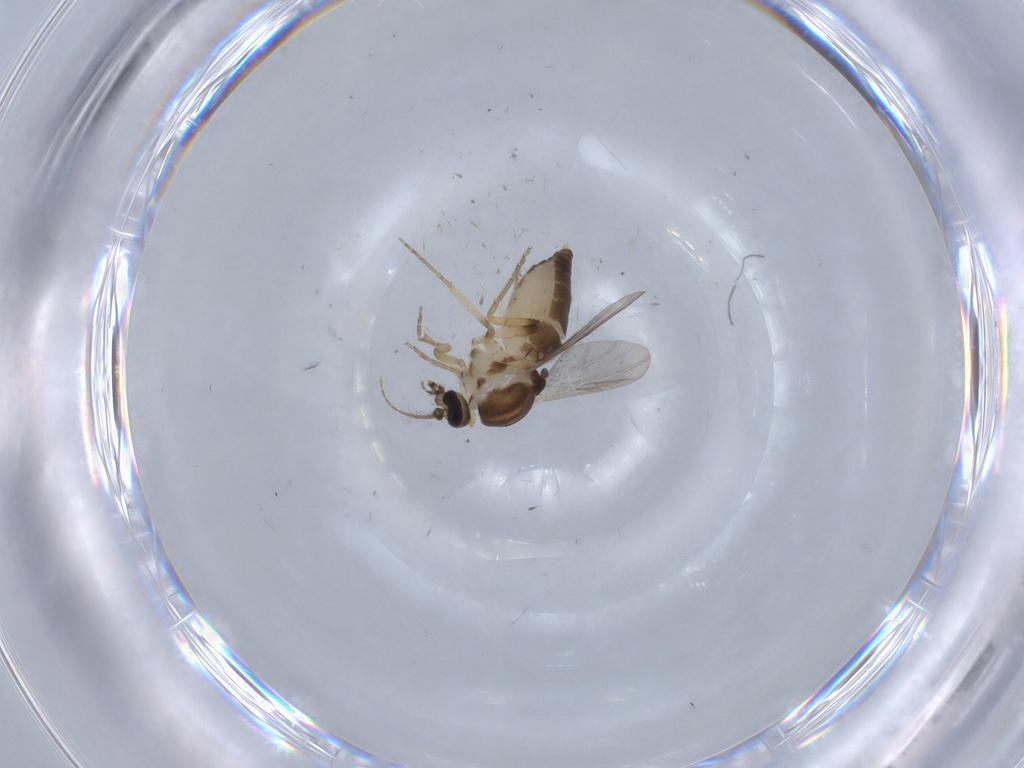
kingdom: Animalia
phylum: Arthropoda
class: Insecta
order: Diptera
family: Ceratopogonidae
